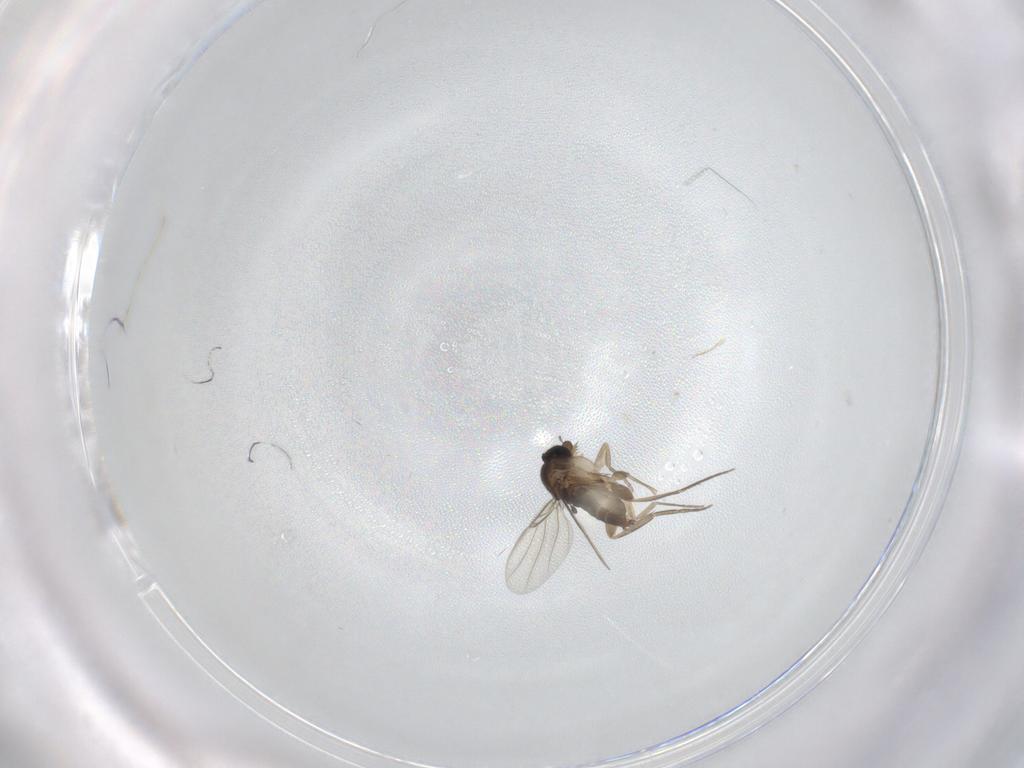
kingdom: Animalia
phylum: Arthropoda
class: Insecta
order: Diptera
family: Phoridae
